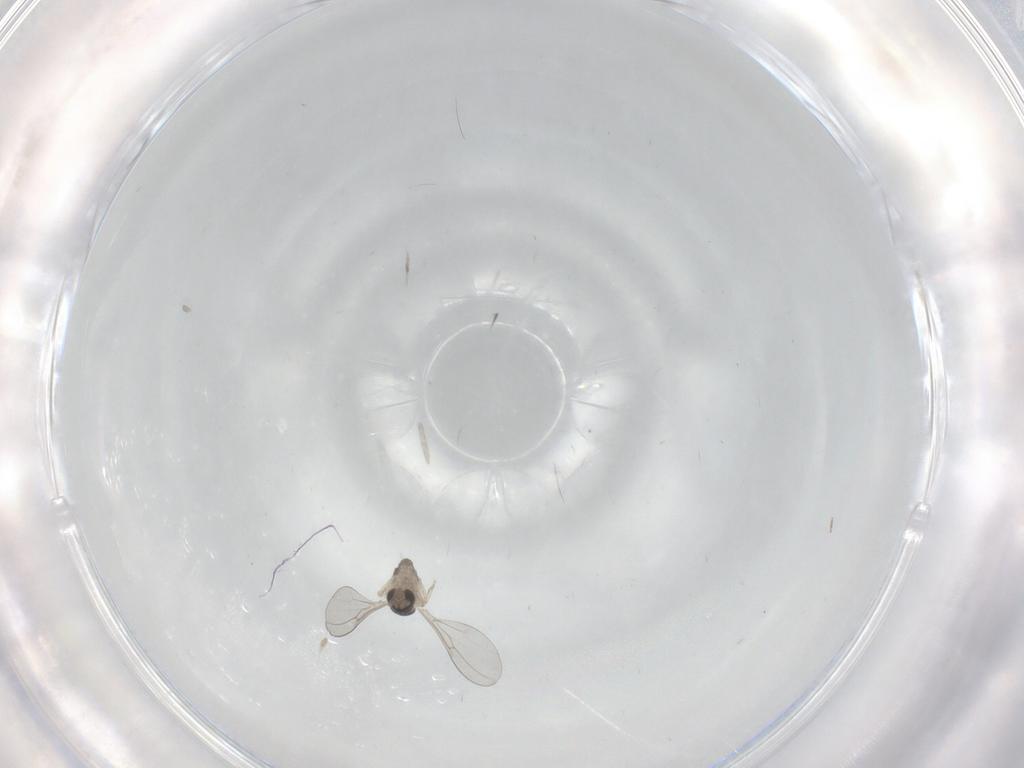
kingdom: Animalia
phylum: Arthropoda
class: Insecta
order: Diptera
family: Cecidomyiidae
